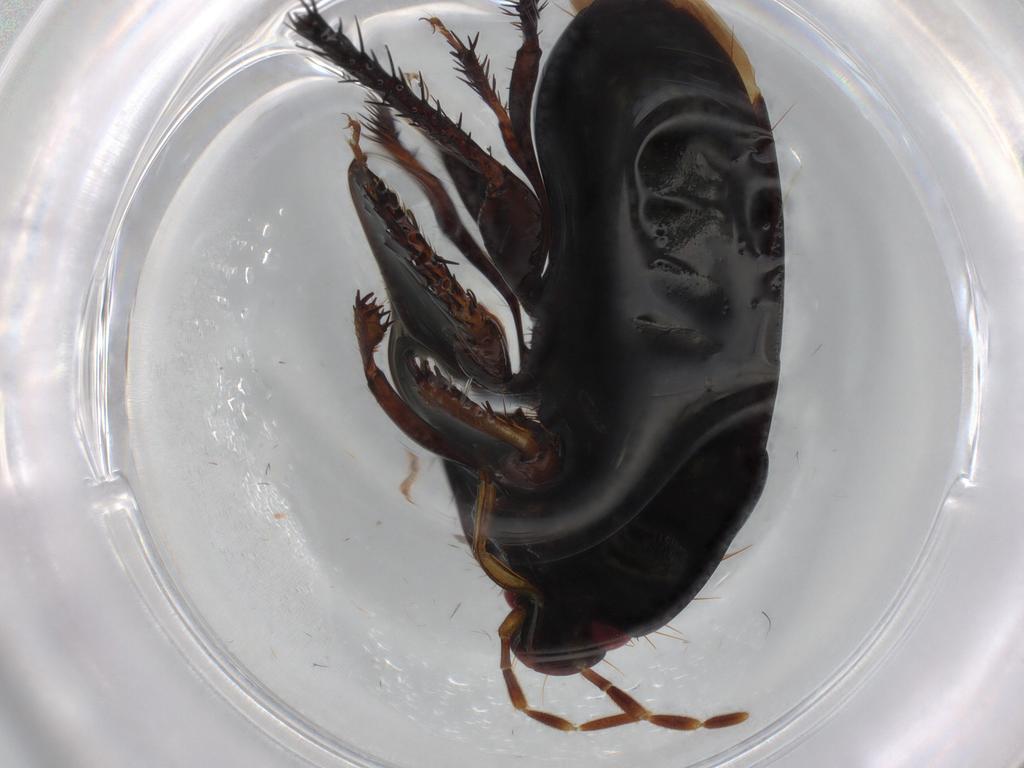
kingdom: Animalia
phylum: Arthropoda
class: Insecta
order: Hemiptera
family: Cydnidae
